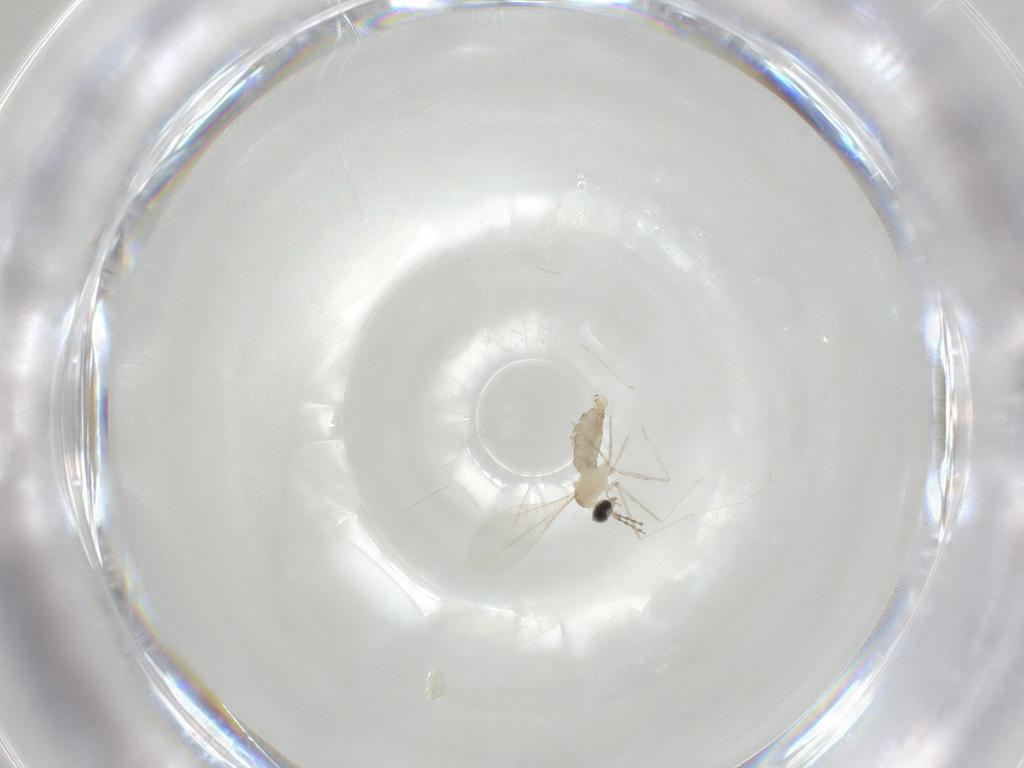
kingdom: Animalia
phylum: Arthropoda
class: Insecta
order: Diptera
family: Cecidomyiidae
